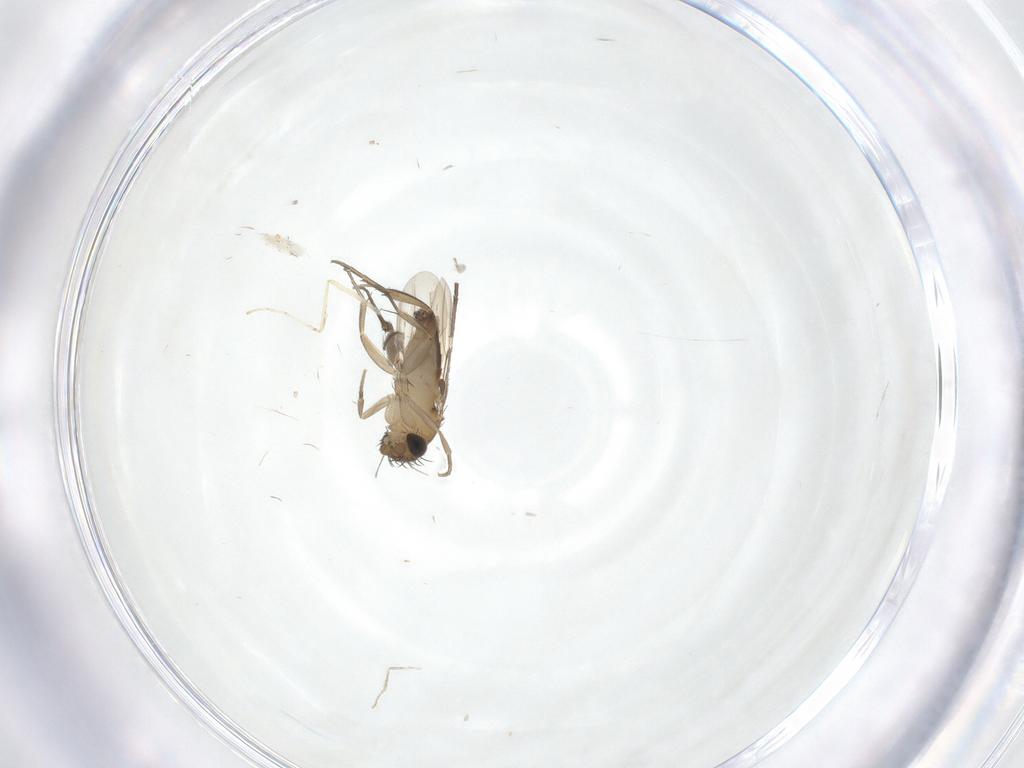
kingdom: Animalia
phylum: Arthropoda
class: Insecta
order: Diptera
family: Phoridae
